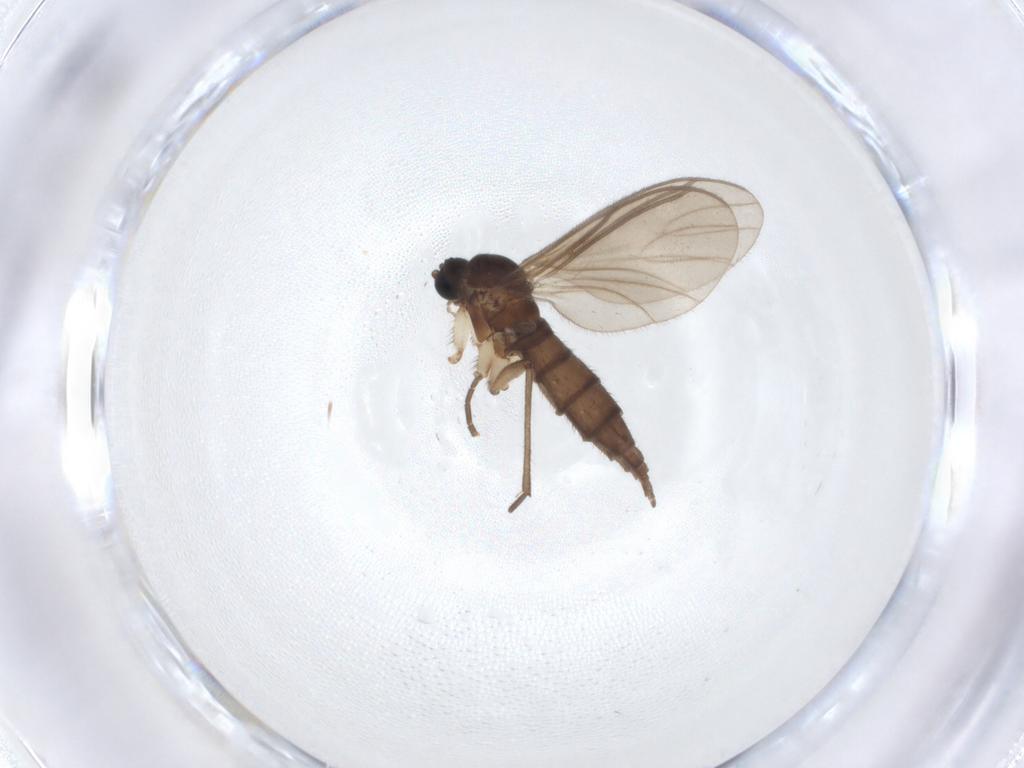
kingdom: Animalia
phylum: Arthropoda
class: Insecta
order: Diptera
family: Sciaridae
